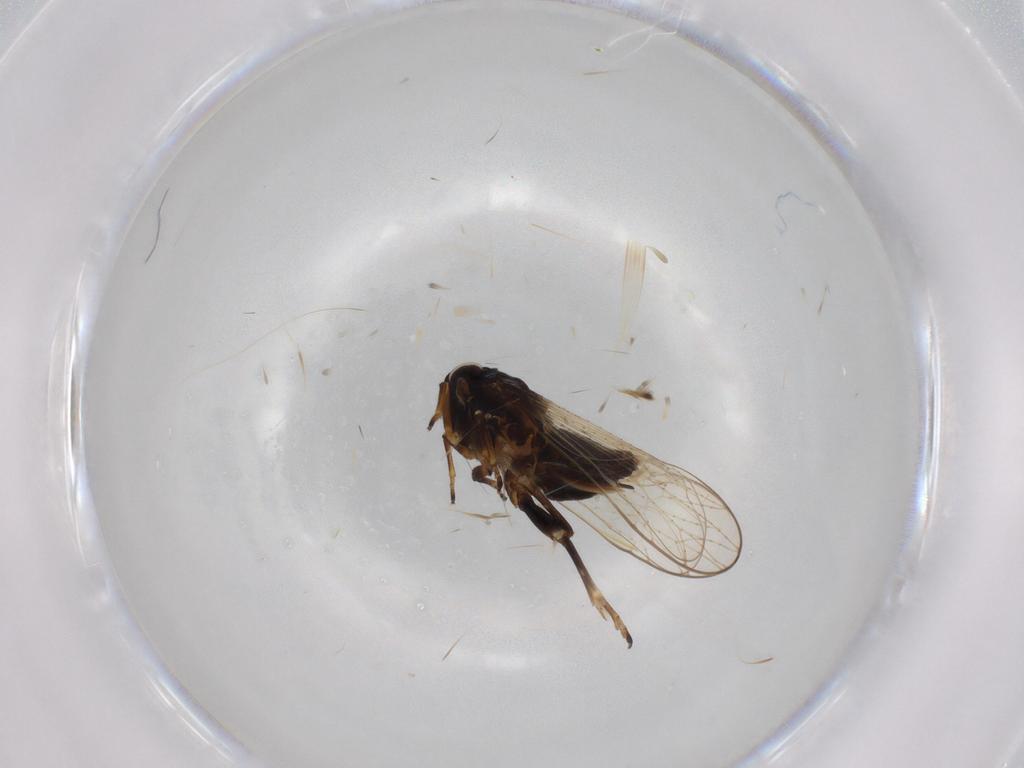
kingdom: Animalia
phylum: Arthropoda
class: Insecta
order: Hemiptera
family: Delphacidae
